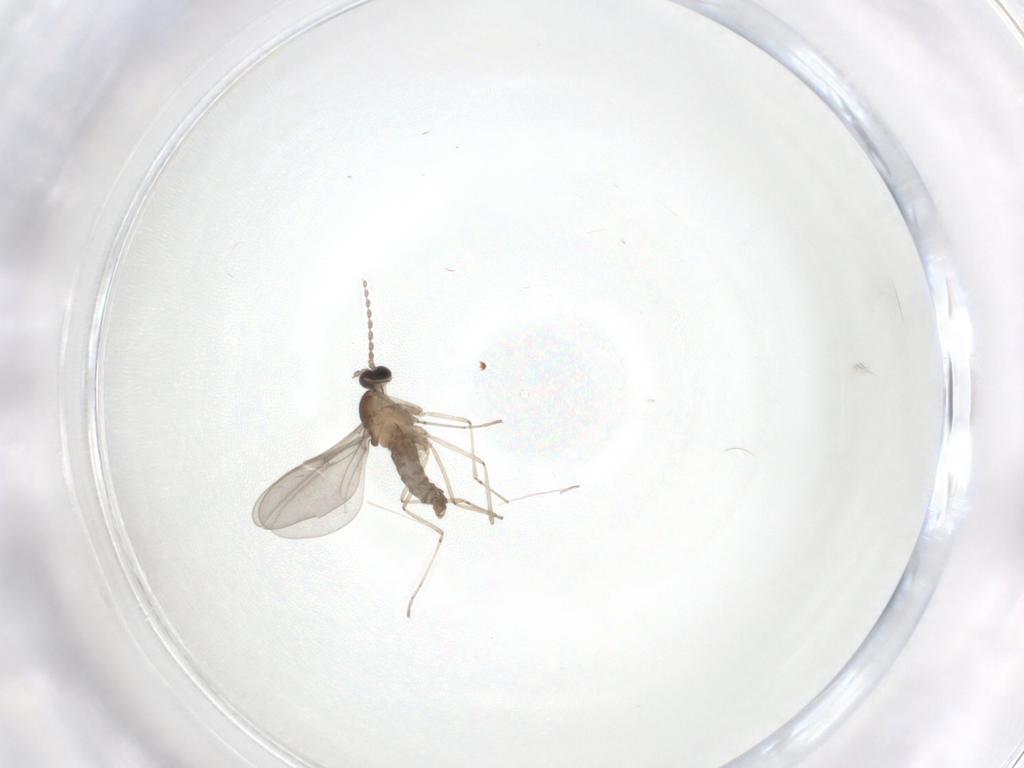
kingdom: Animalia
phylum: Arthropoda
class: Insecta
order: Diptera
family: Cecidomyiidae
